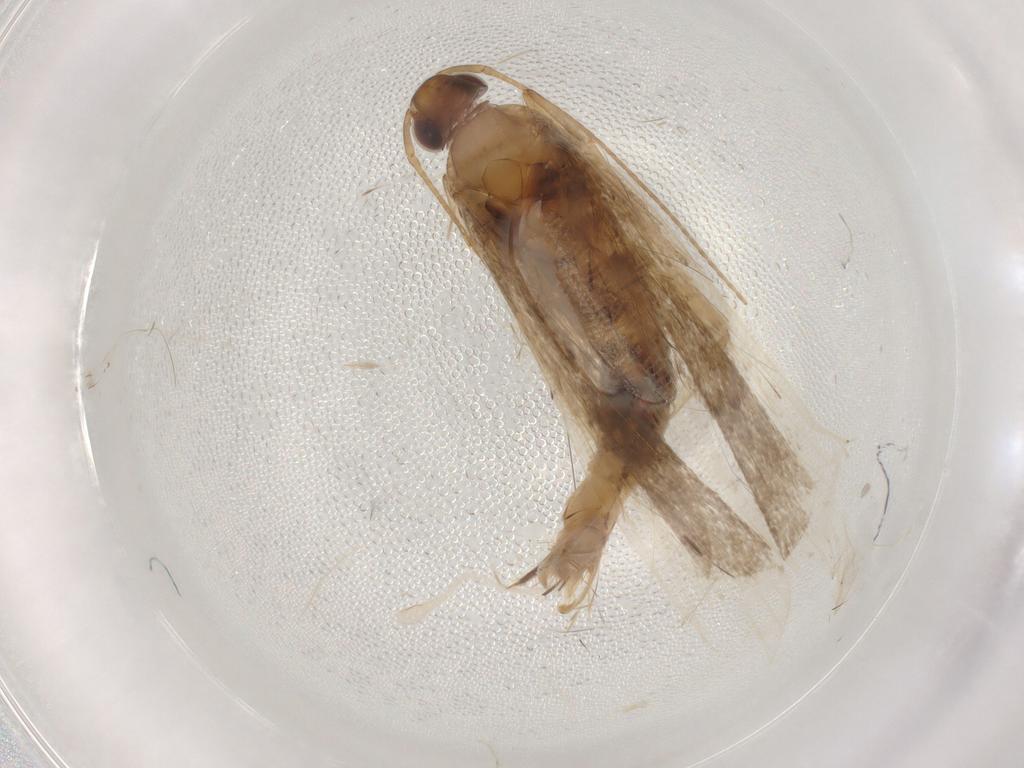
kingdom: Animalia
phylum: Arthropoda
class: Insecta
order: Lepidoptera
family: Gelechiidae
